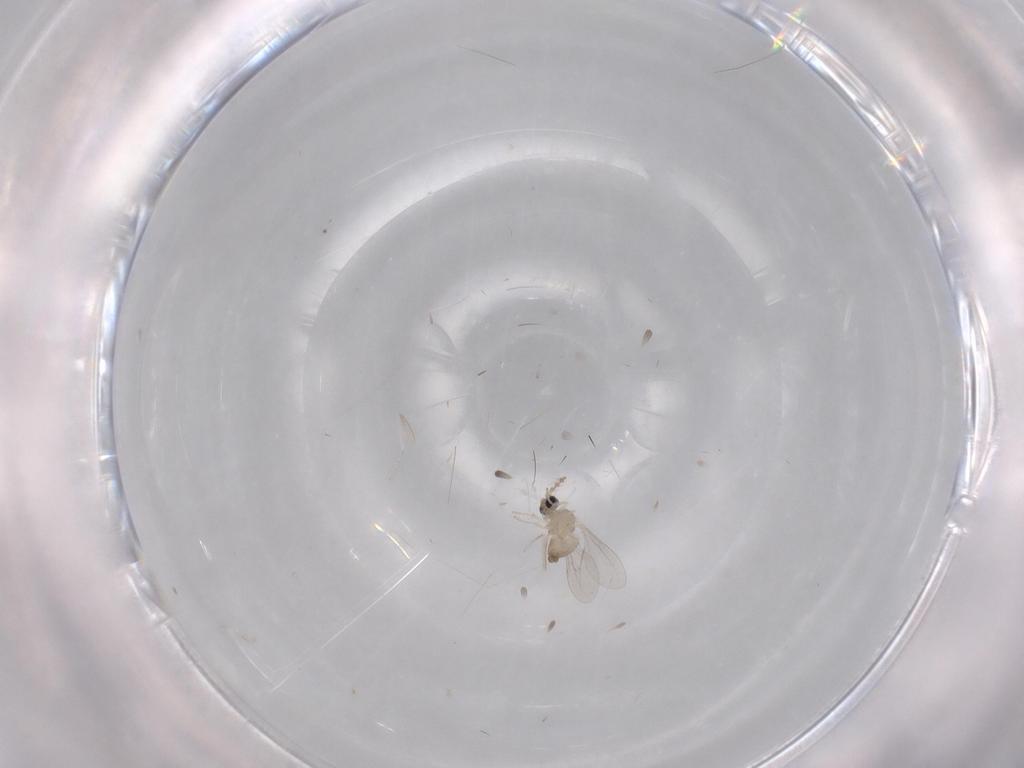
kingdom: Animalia
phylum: Arthropoda
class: Insecta
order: Diptera
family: Cecidomyiidae
